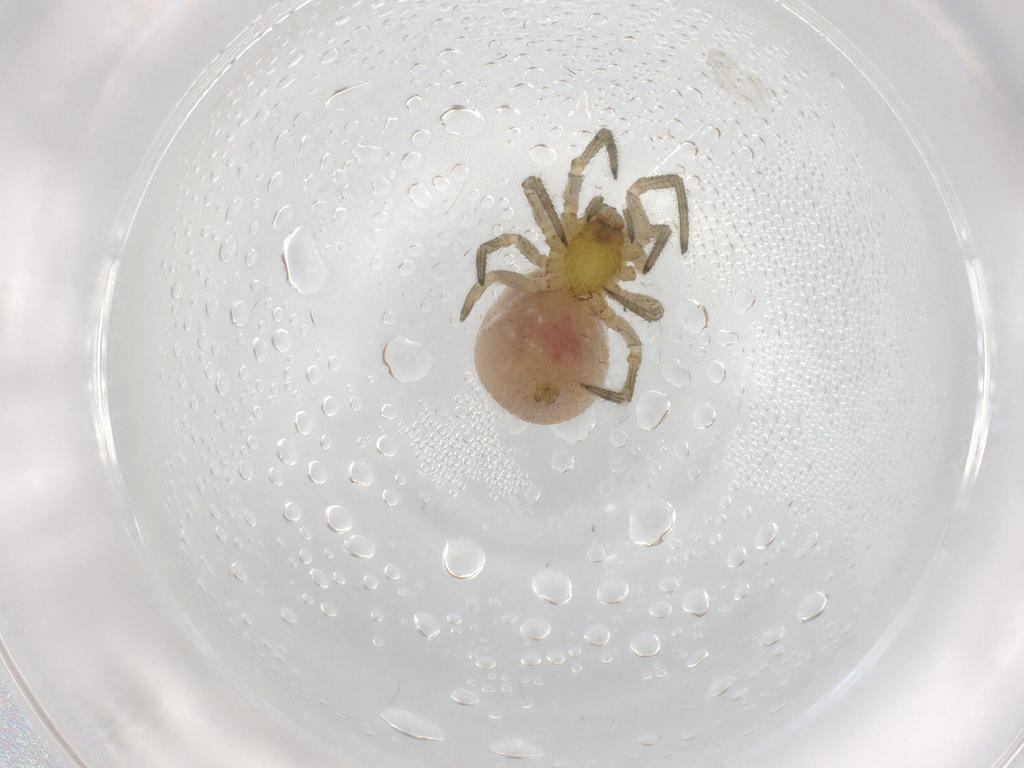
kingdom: Animalia
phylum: Arthropoda
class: Arachnida
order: Araneae
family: Theridiidae
